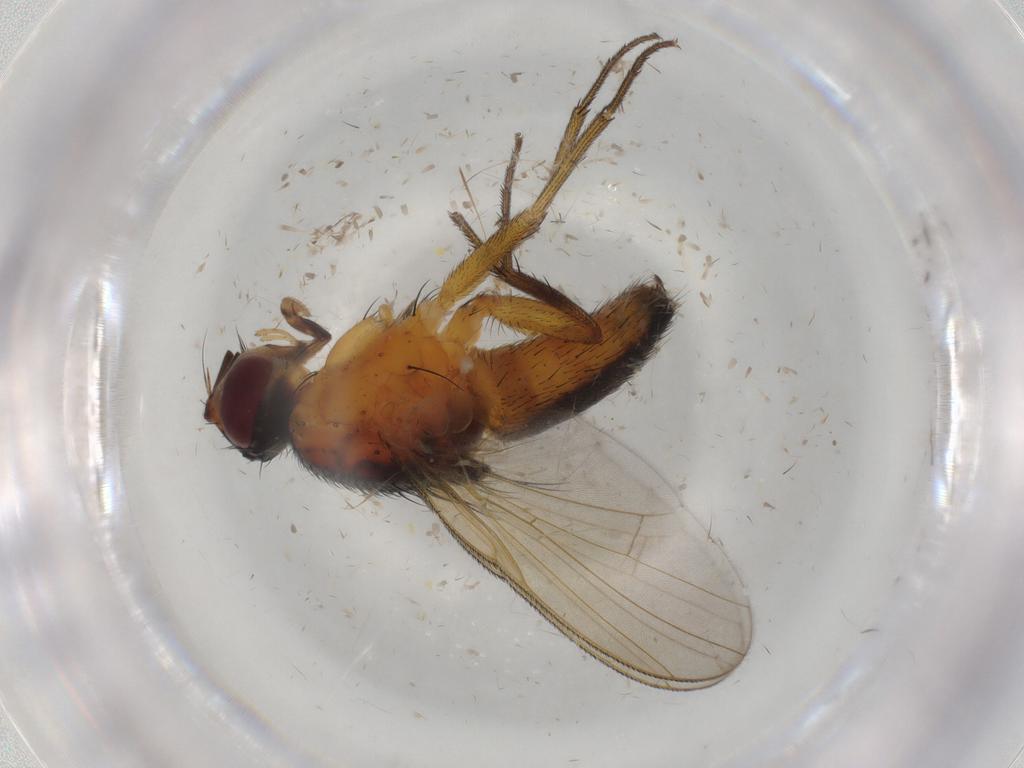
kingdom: Animalia
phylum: Arthropoda
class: Insecta
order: Diptera
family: Muscidae
